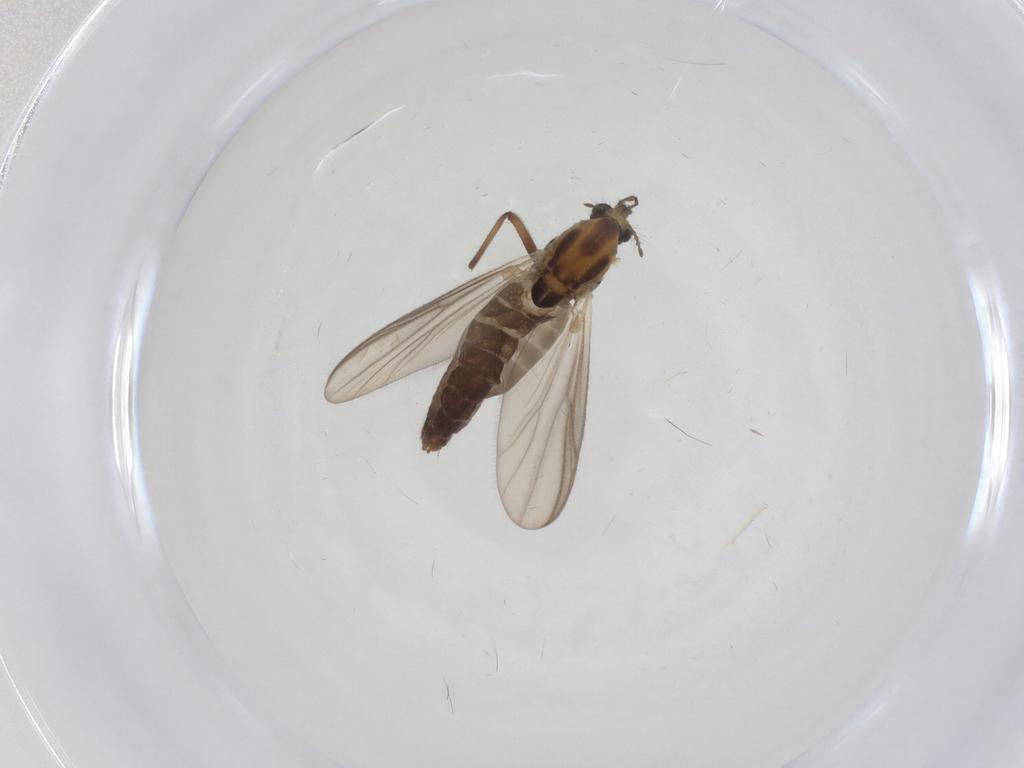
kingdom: Animalia
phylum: Arthropoda
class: Insecta
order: Diptera
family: Chironomidae
